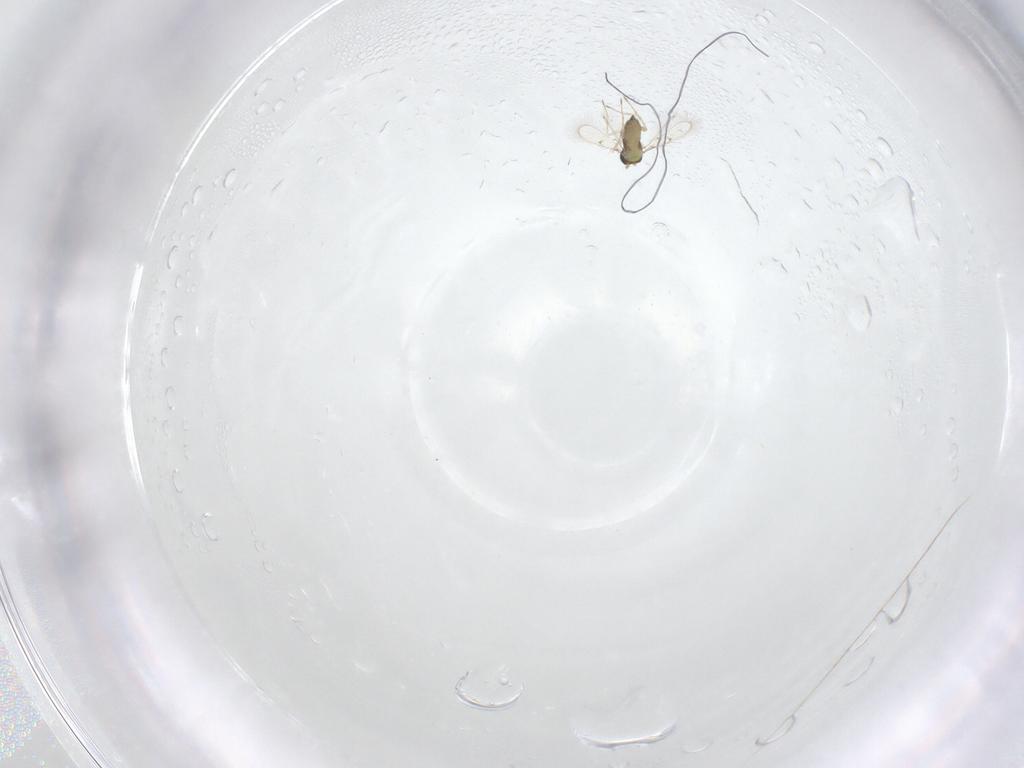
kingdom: Animalia
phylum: Arthropoda
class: Insecta
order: Hymenoptera
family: Trichogrammatidae
